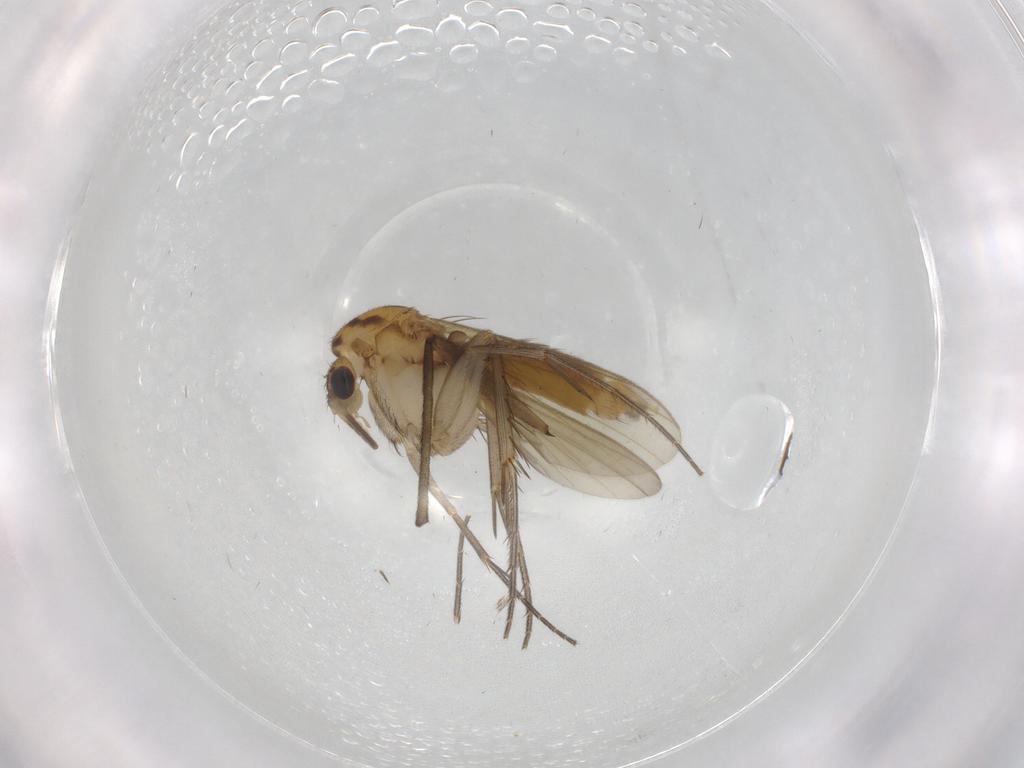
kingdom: Animalia
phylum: Arthropoda
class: Insecta
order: Diptera
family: Mycetophilidae
